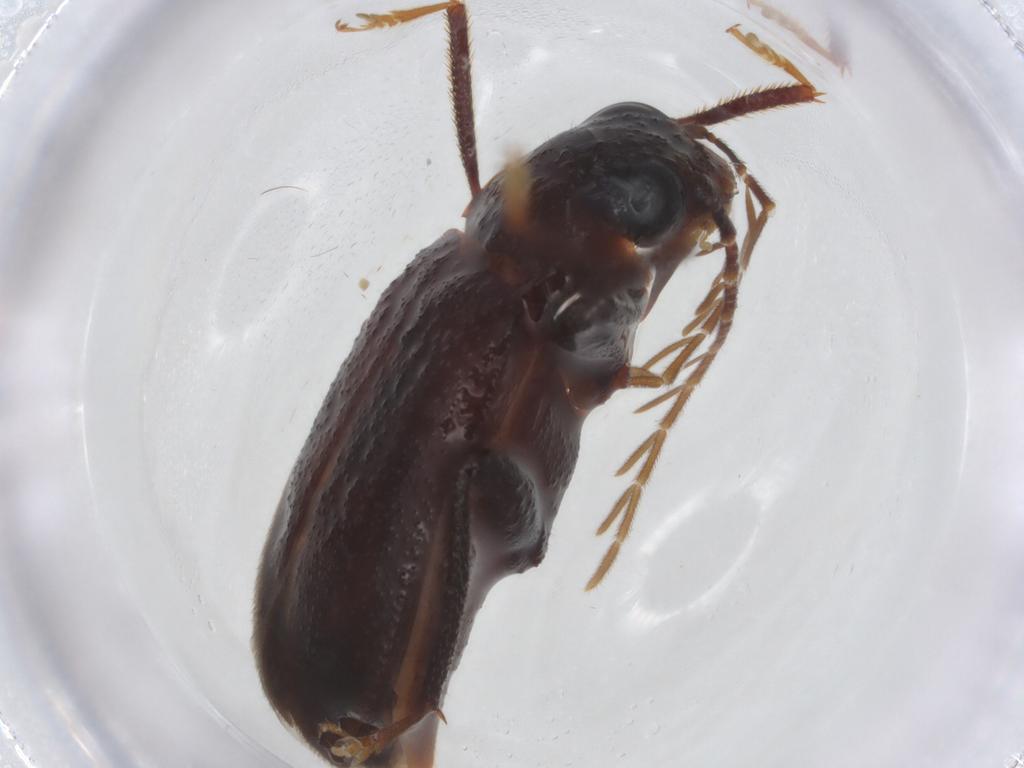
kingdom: Animalia
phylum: Arthropoda
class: Insecta
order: Coleoptera
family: Ptilodactylidae
